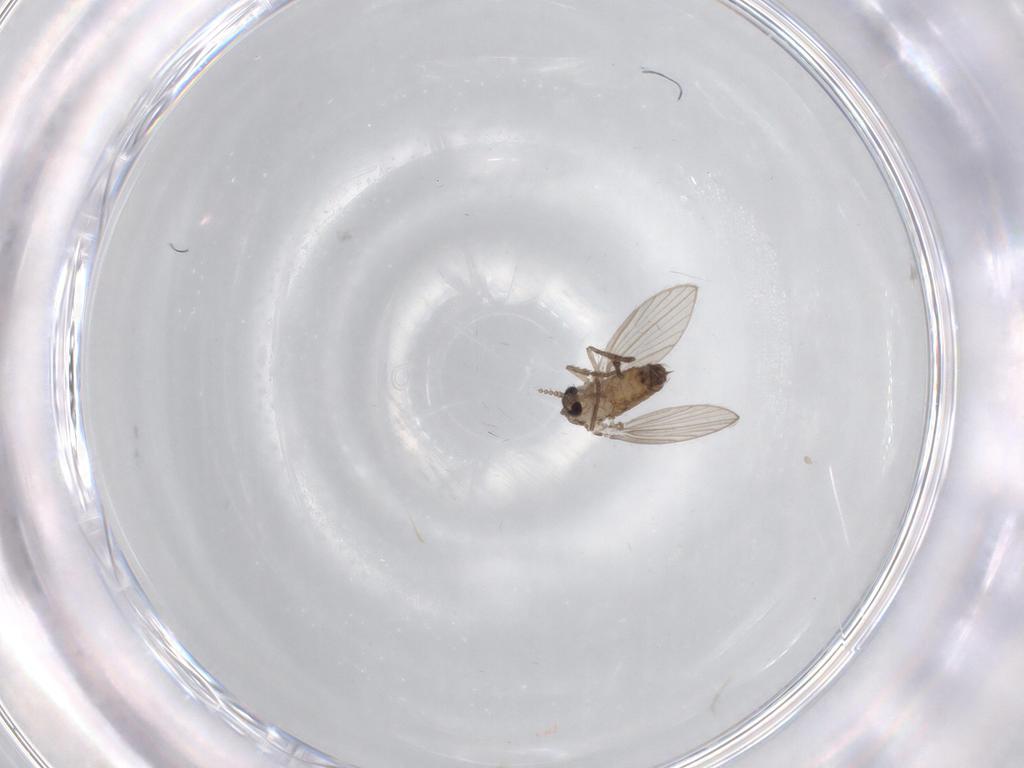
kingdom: Animalia
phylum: Arthropoda
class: Insecta
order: Diptera
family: Psychodidae
